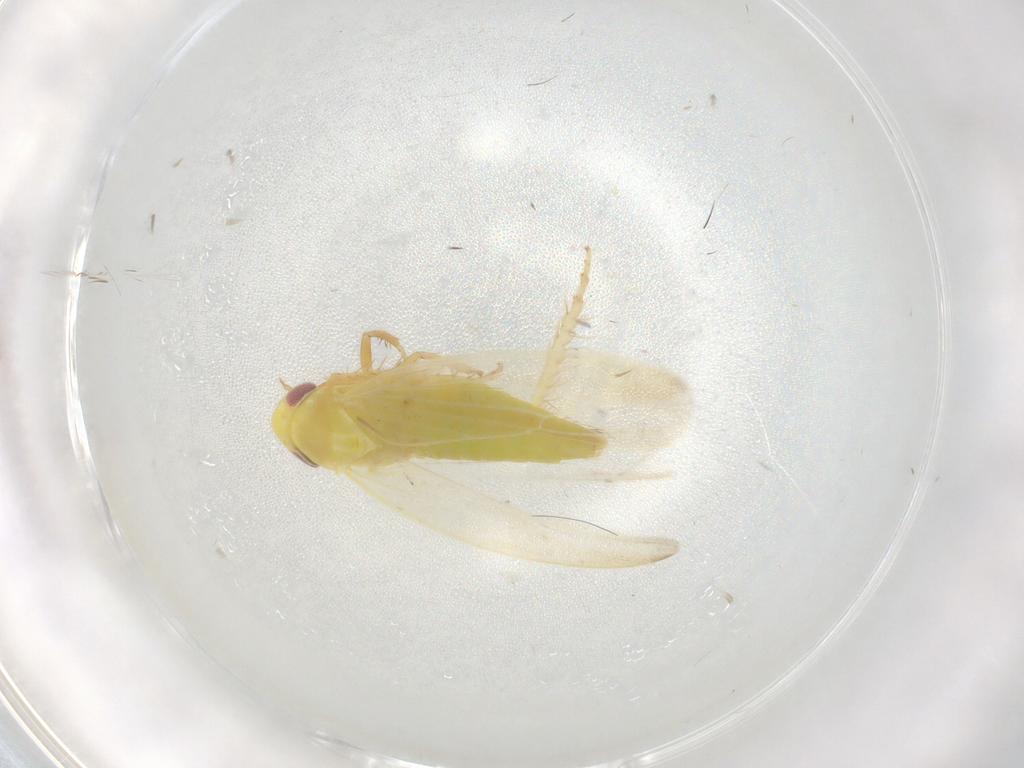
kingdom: Animalia
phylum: Arthropoda
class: Insecta
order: Hemiptera
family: Cicadellidae
